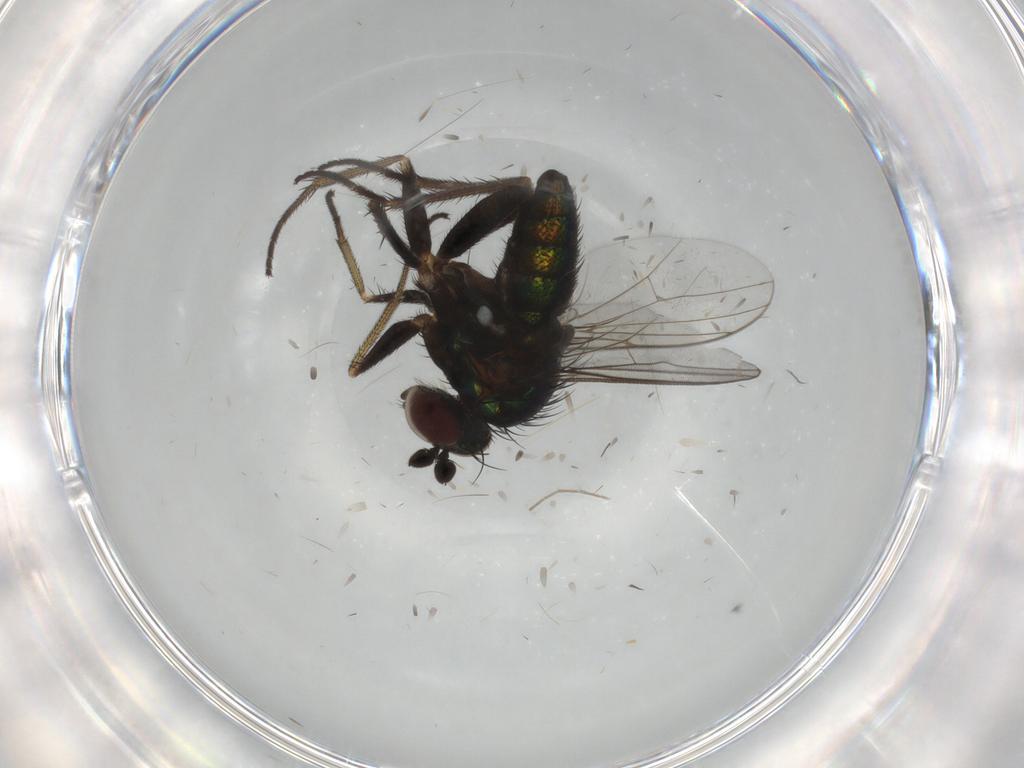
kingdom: Animalia
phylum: Arthropoda
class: Insecta
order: Diptera
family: Dolichopodidae
